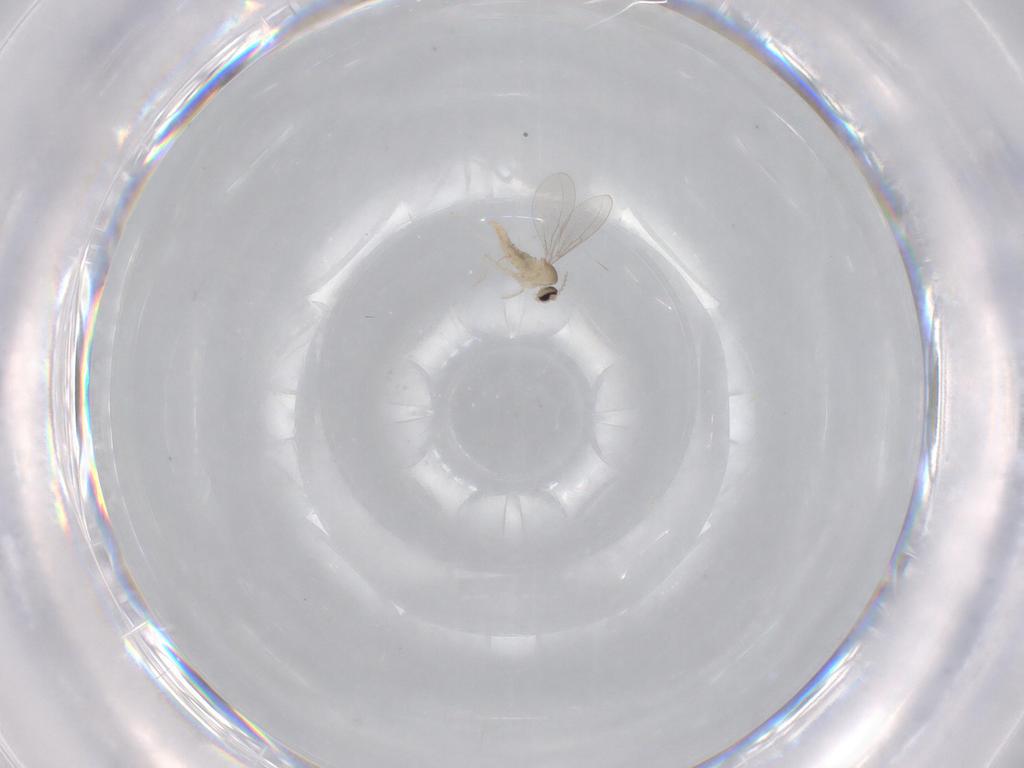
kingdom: Animalia
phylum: Arthropoda
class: Insecta
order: Diptera
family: Cecidomyiidae
